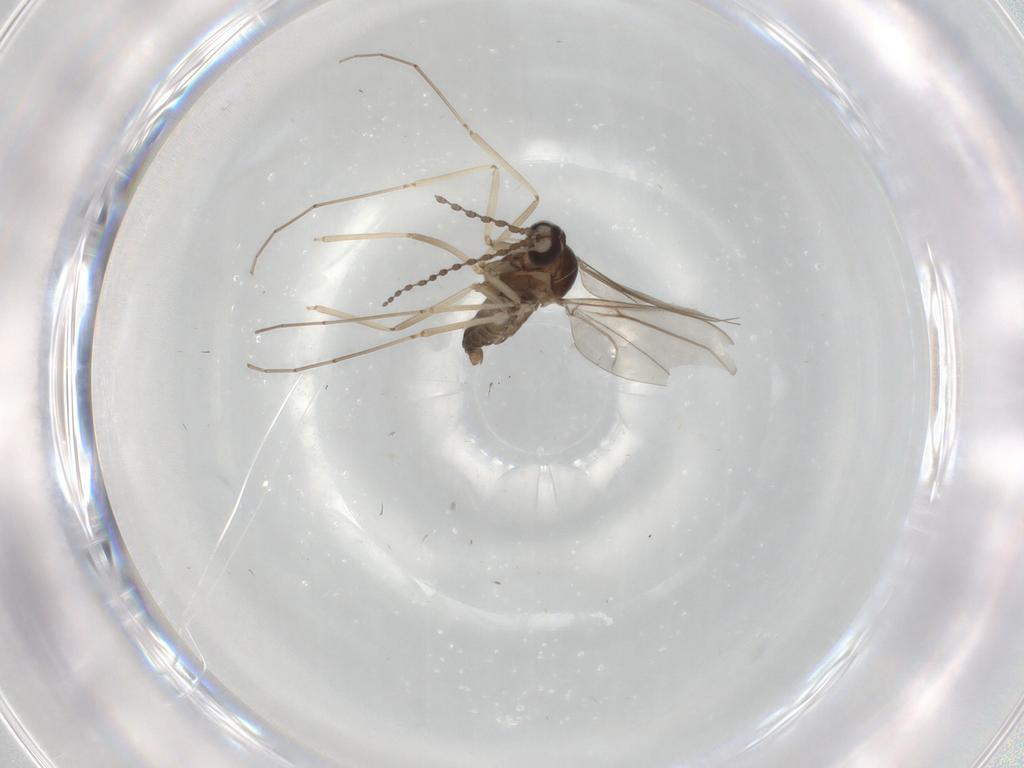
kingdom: Animalia
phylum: Arthropoda
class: Insecta
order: Diptera
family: Cecidomyiidae
